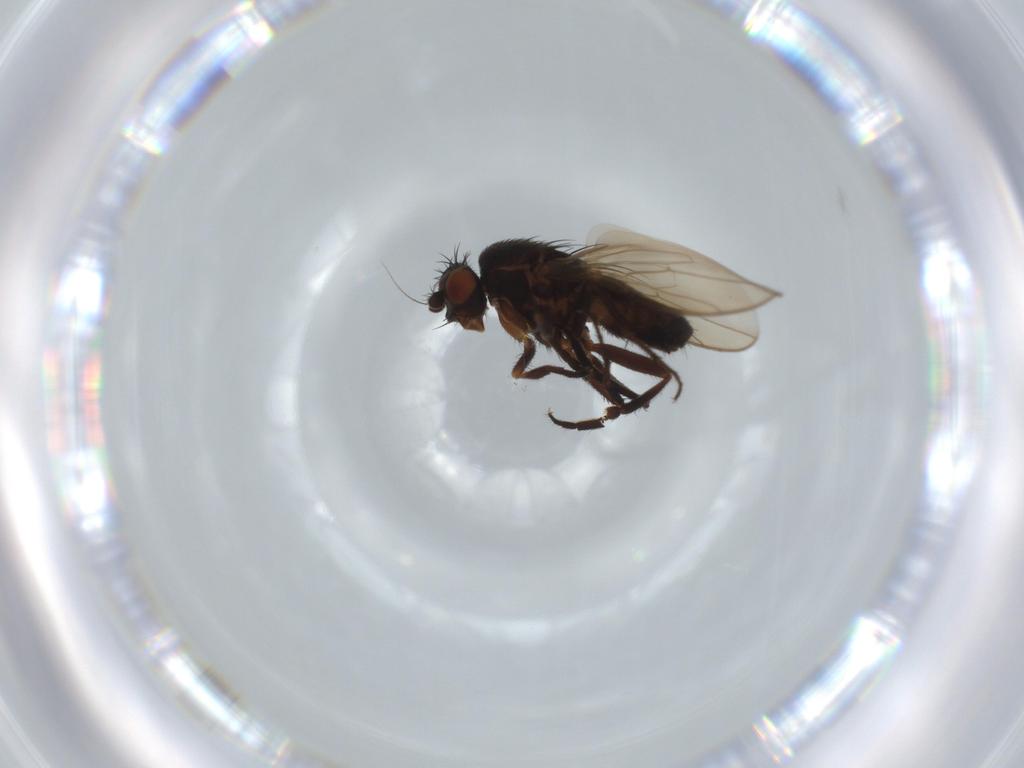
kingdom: Animalia
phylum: Arthropoda
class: Insecta
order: Diptera
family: Sphaeroceridae
